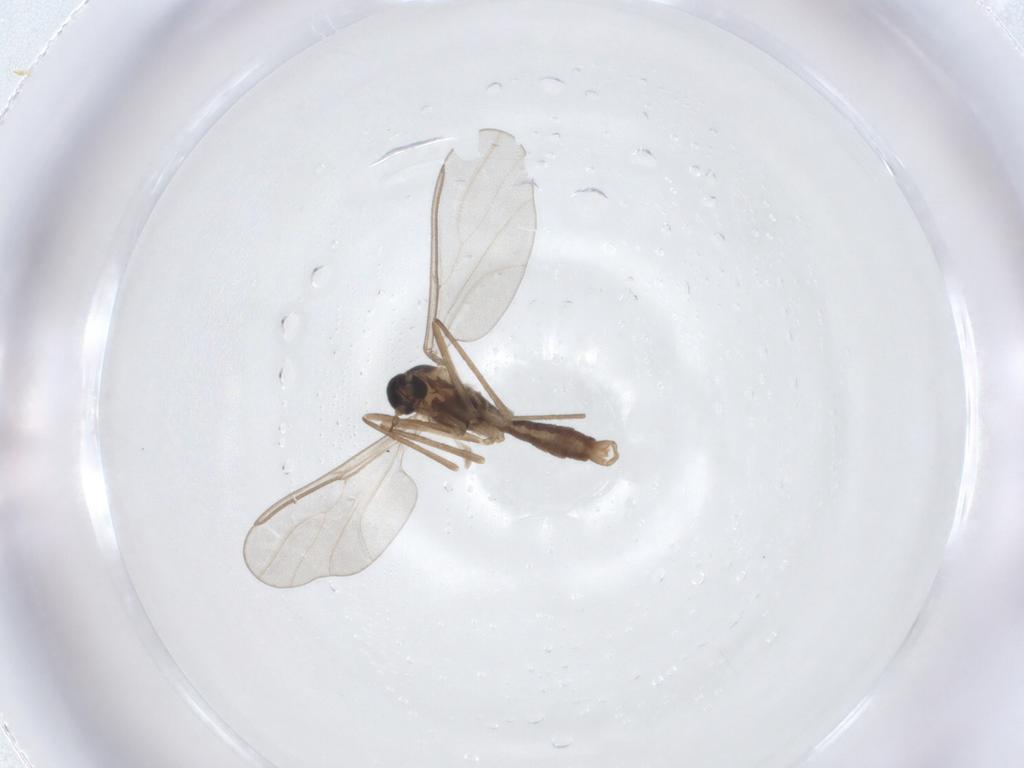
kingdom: Animalia
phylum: Arthropoda
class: Insecta
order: Diptera
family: Cecidomyiidae
